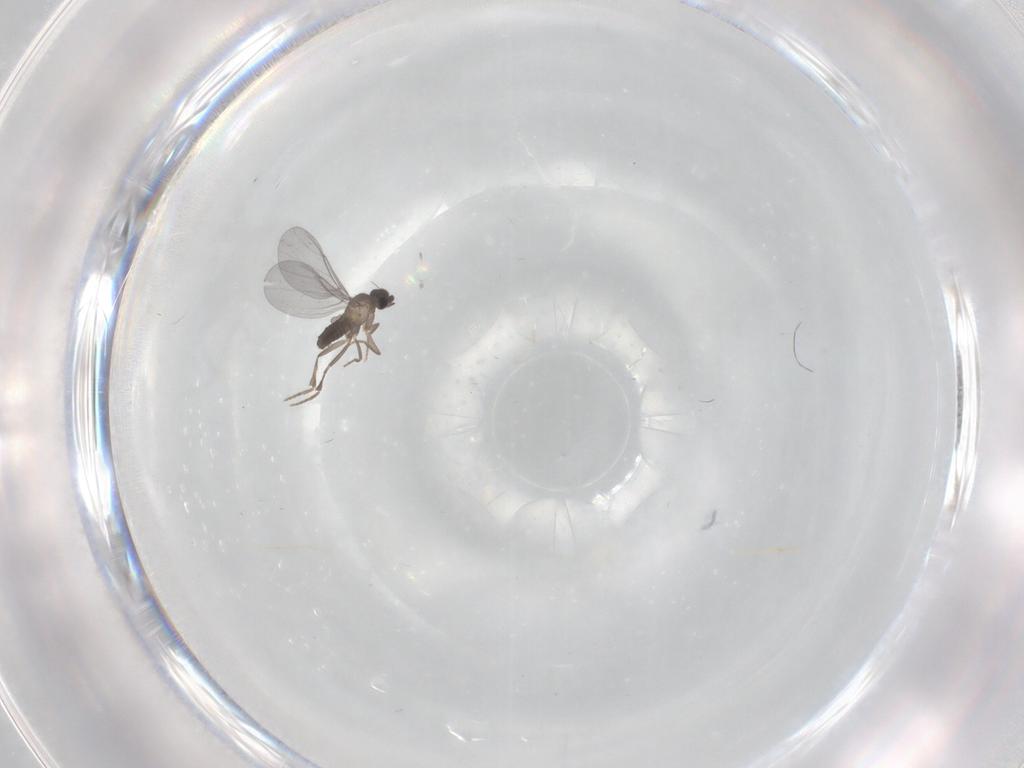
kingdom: Animalia
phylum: Arthropoda
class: Insecta
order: Diptera
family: Phoridae
